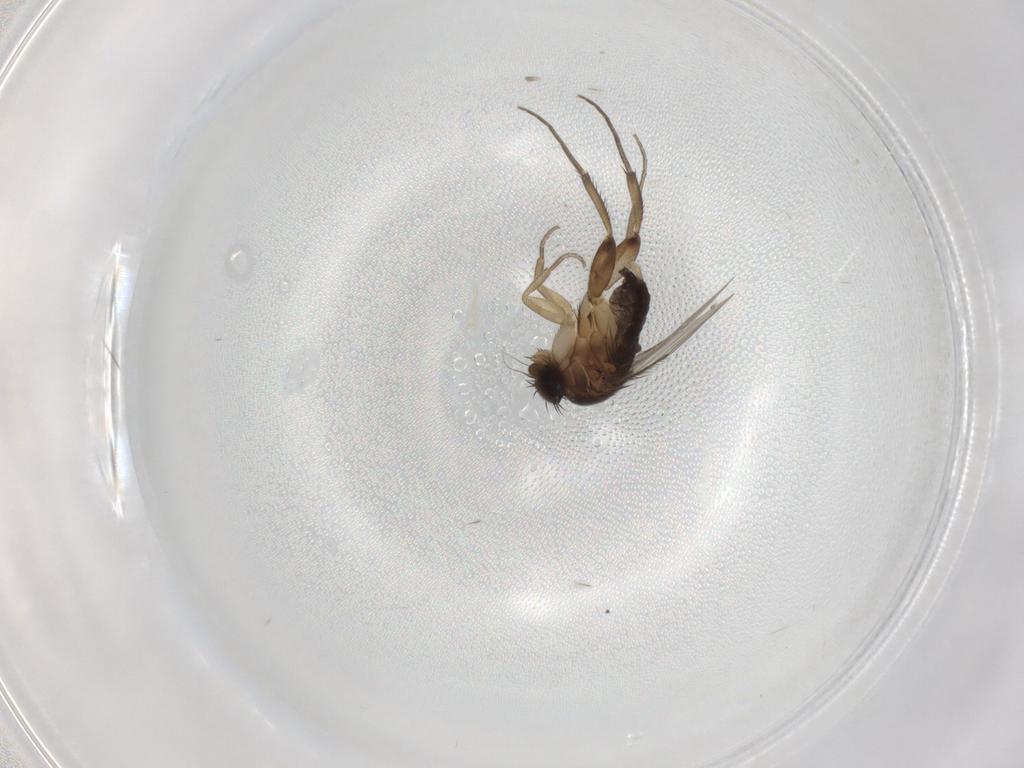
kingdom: Animalia
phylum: Arthropoda
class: Insecta
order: Diptera
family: Phoridae
